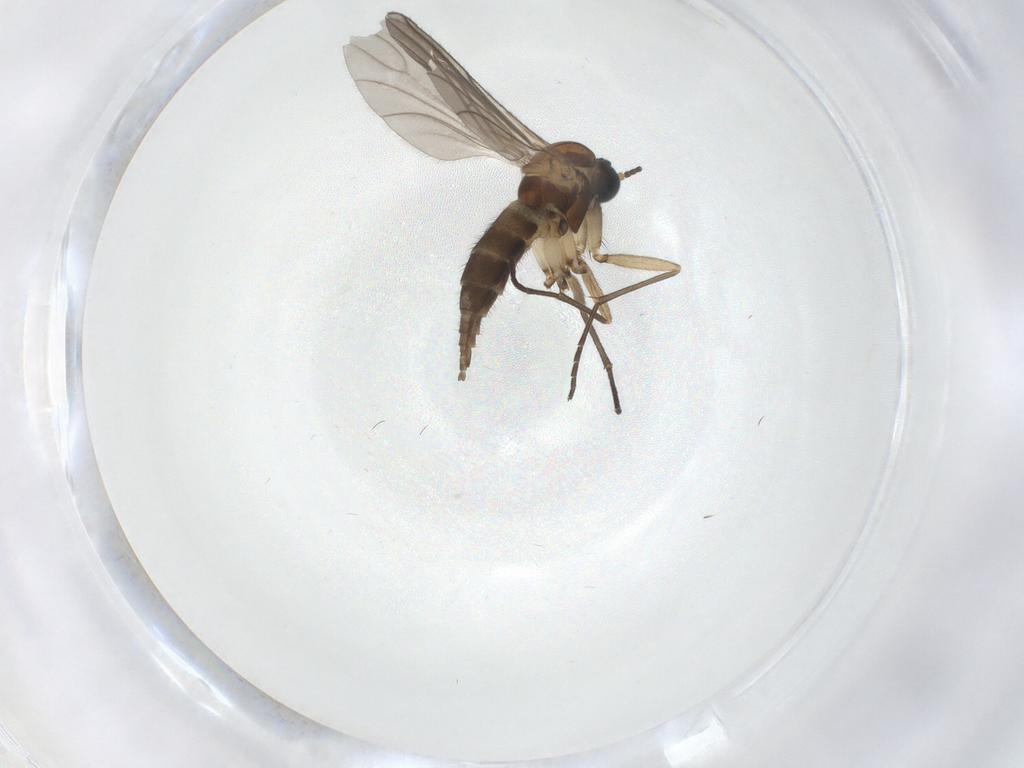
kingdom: Animalia
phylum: Arthropoda
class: Insecta
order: Diptera
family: Sciaridae
